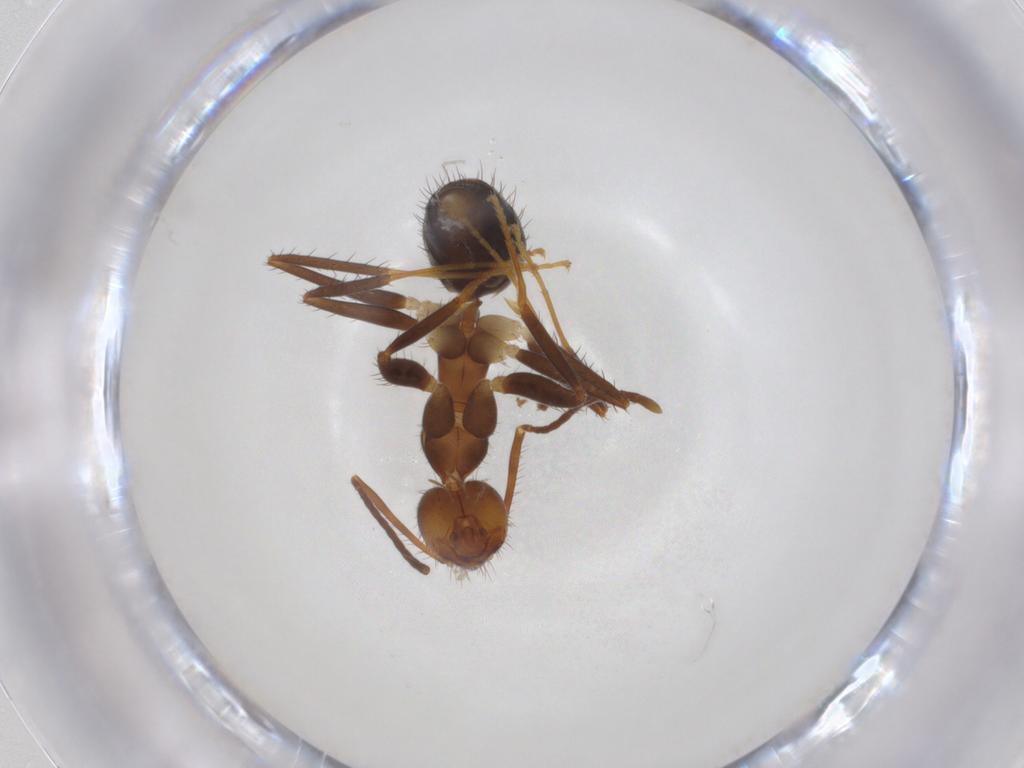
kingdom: Animalia
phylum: Arthropoda
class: Insecta
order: Hymenoptera
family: Formicidae
